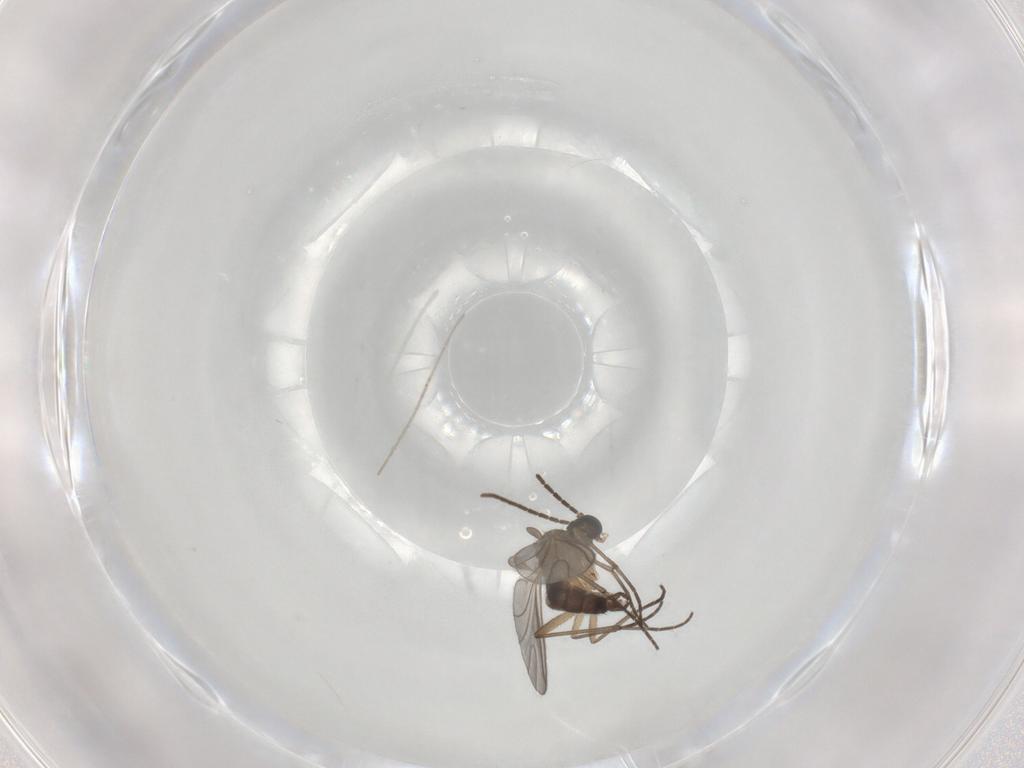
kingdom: Animalia
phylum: Arthropoda
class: Insecta
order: Diptera
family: Sciaridae
